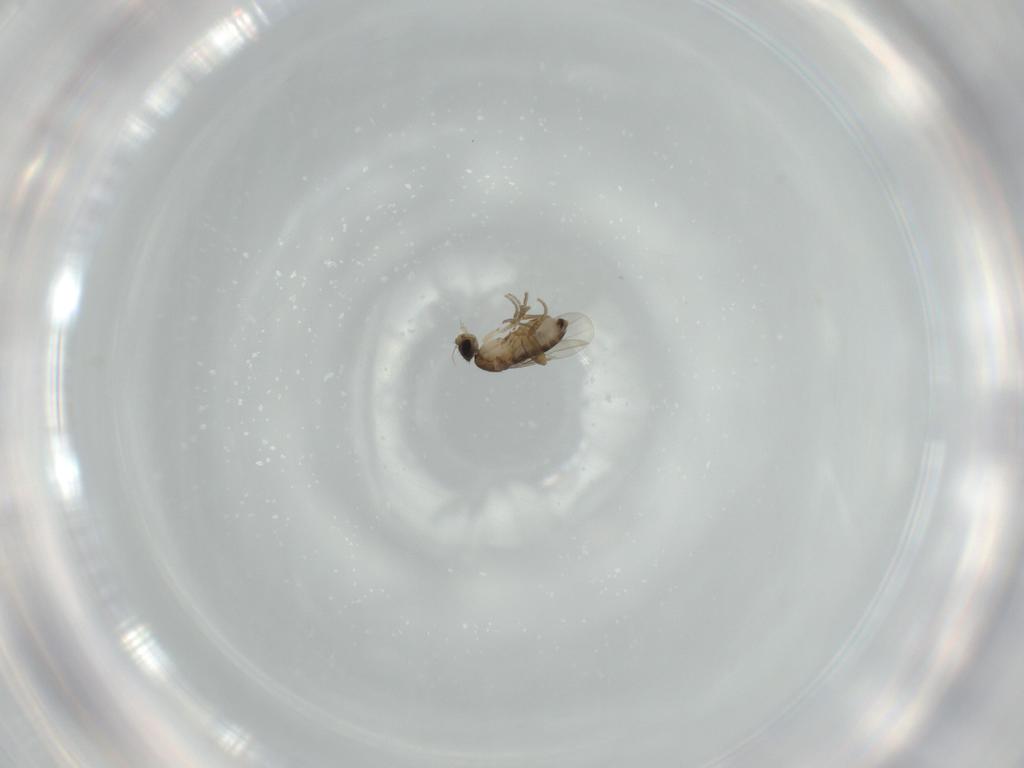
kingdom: Animalia
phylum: Arthropoda
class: Insecta
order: Diptera
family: Phoridae
